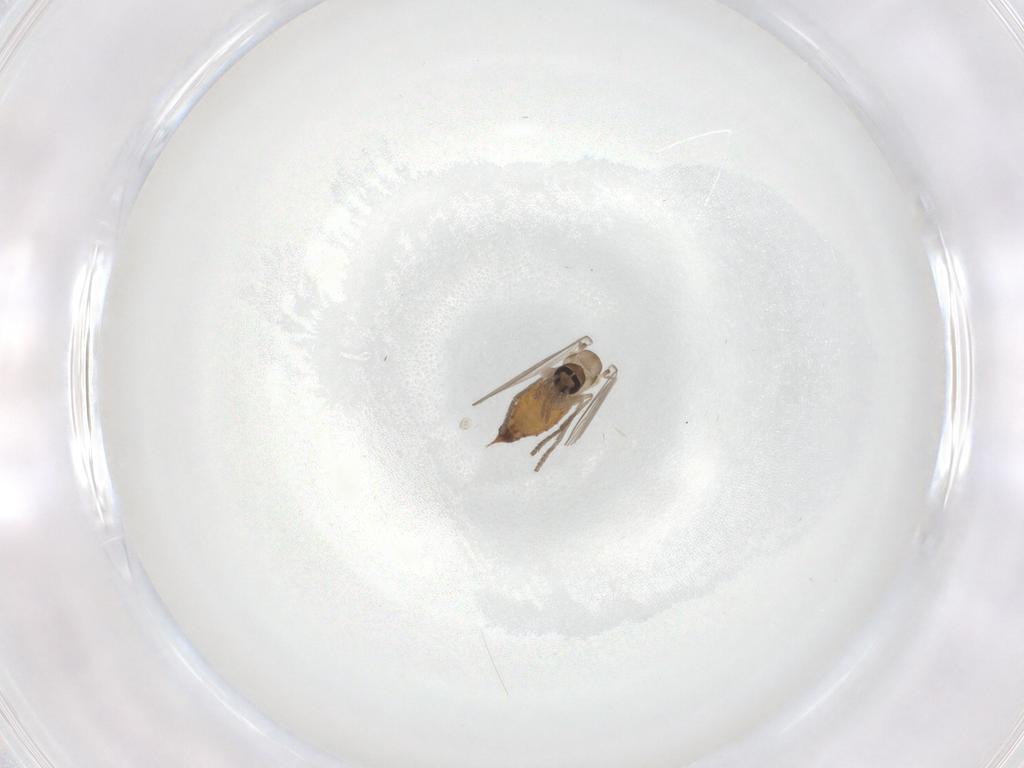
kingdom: Animalia
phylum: Arthropoda
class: Insecta
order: Diptera
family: Psychodidae
